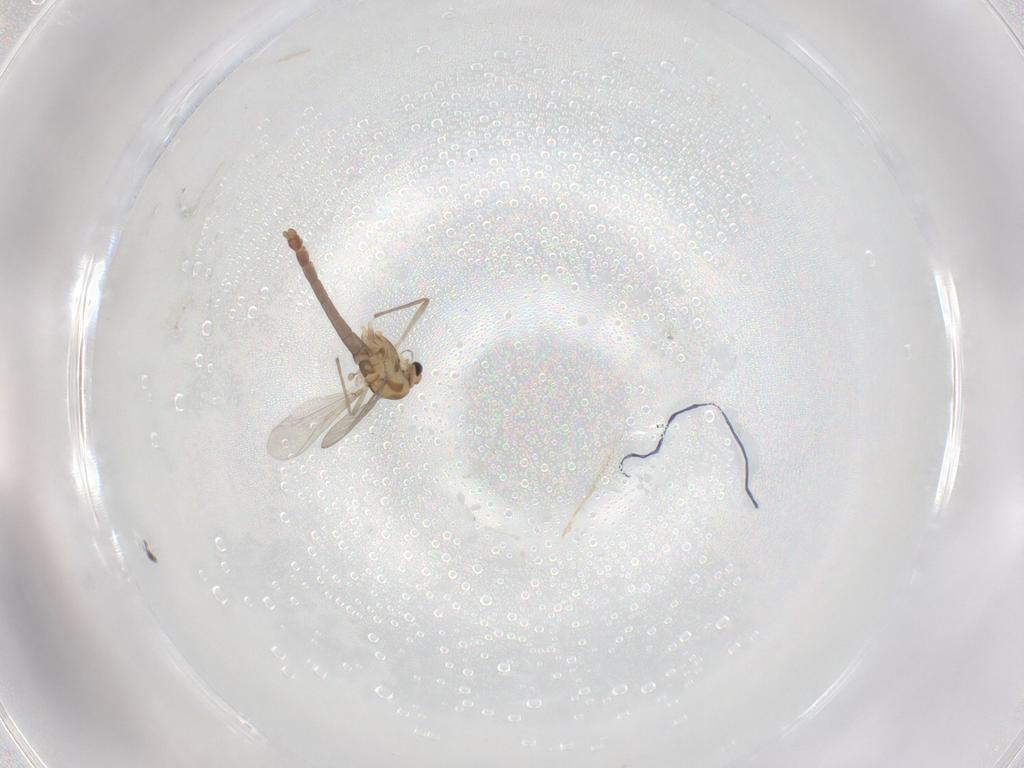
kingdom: Animalia
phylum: Arthropoda
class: Insecta
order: Diptera
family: Chironomidae
